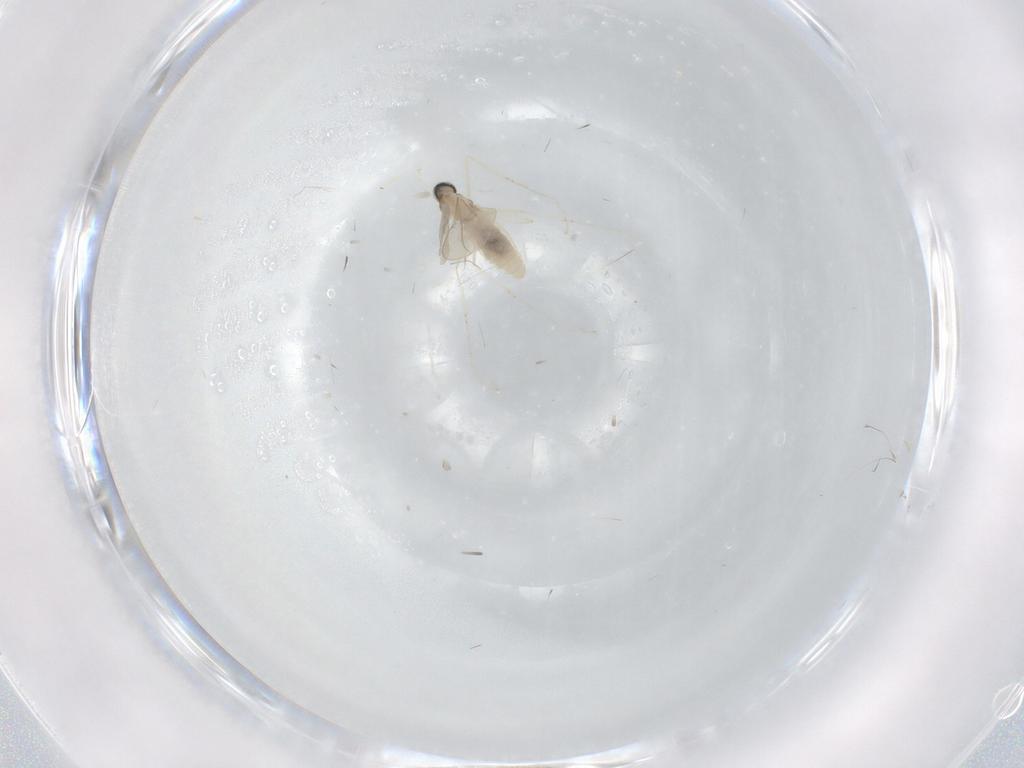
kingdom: Animalia
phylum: Arthropoda
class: Insecta
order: Diptera
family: Cecidomyiidae
